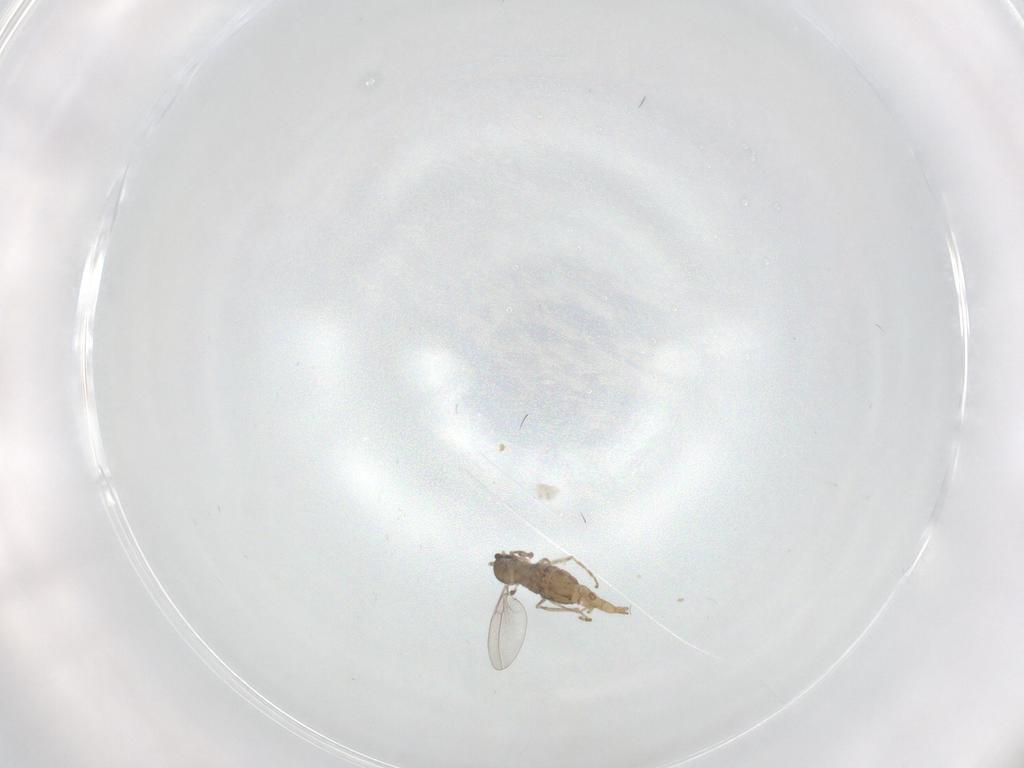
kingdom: Animalia
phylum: Arthropoda
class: Insecta
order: Diptera
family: Cecidomyiidae
